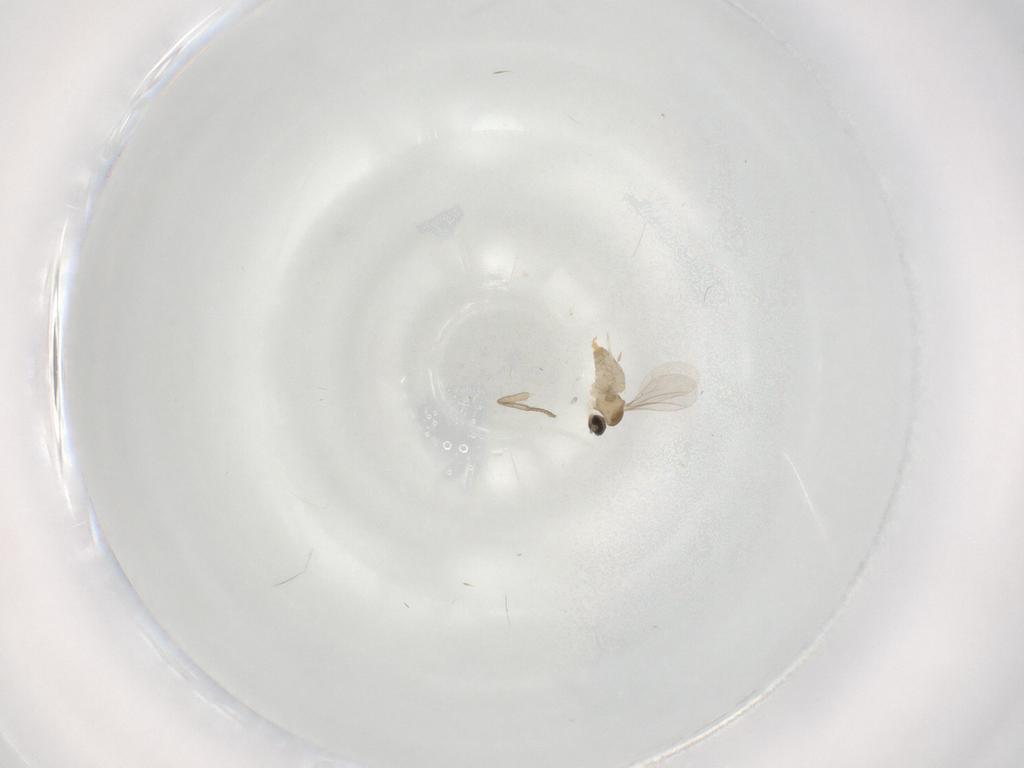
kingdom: Animalia
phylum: Arthropoda
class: Insecta
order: Diptera
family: Cecidomyiidae
